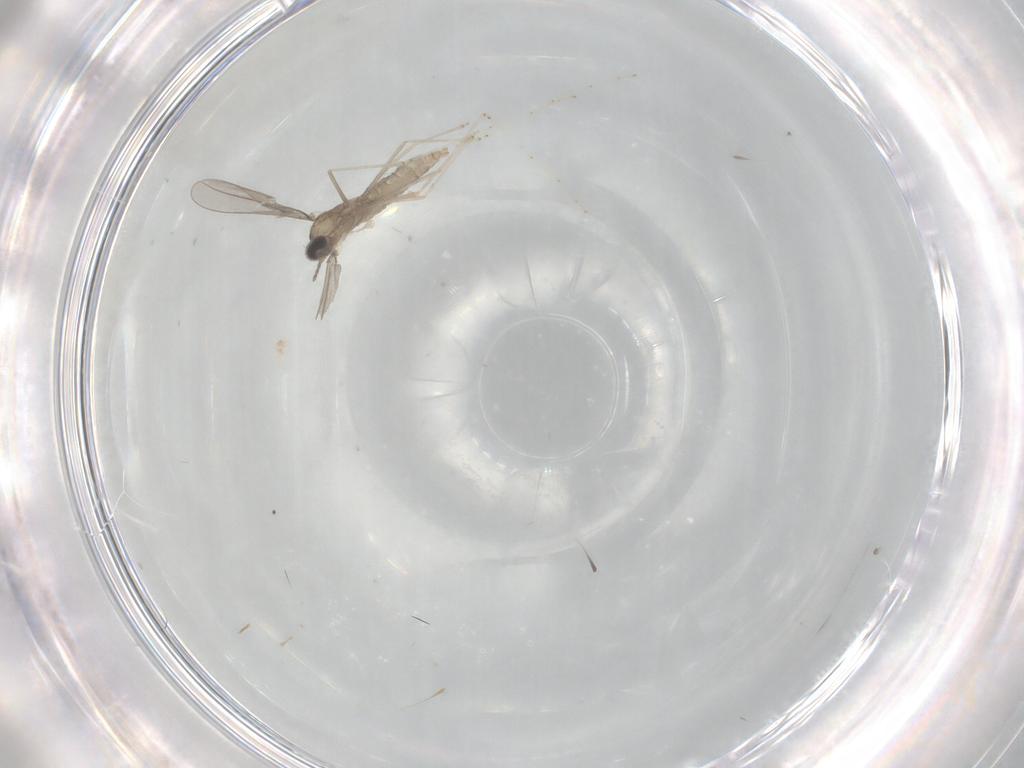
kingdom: Animalia
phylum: Arthropoda
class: Insecta
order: Diptera
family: Cecidomyiidae
